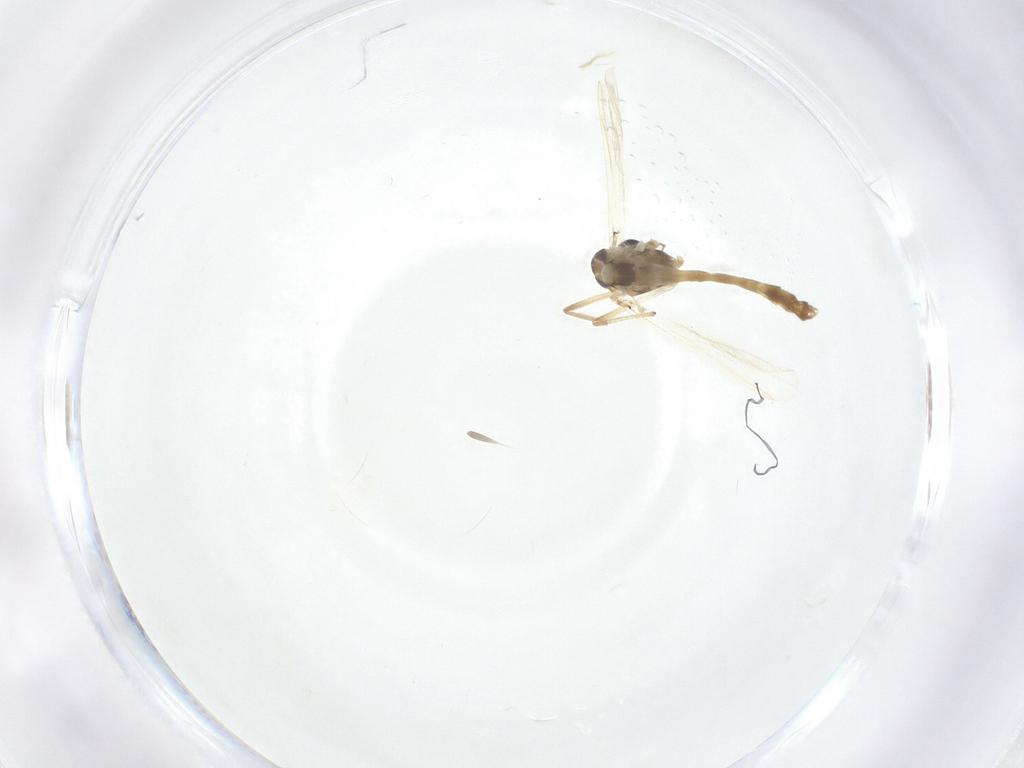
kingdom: Animalia
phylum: Arthropoda
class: Insecta
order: Diptera
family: Chironomidae
